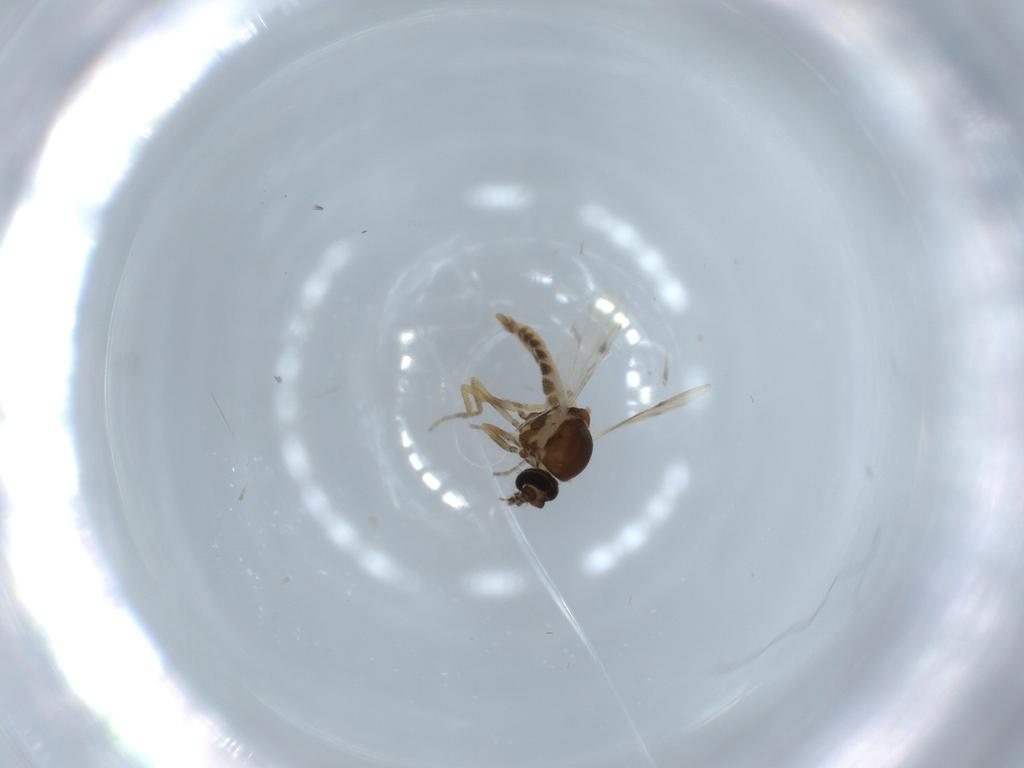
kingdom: Animalia
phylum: Arthropoda
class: Insecta
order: Diptera
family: Ceratopogonidae
